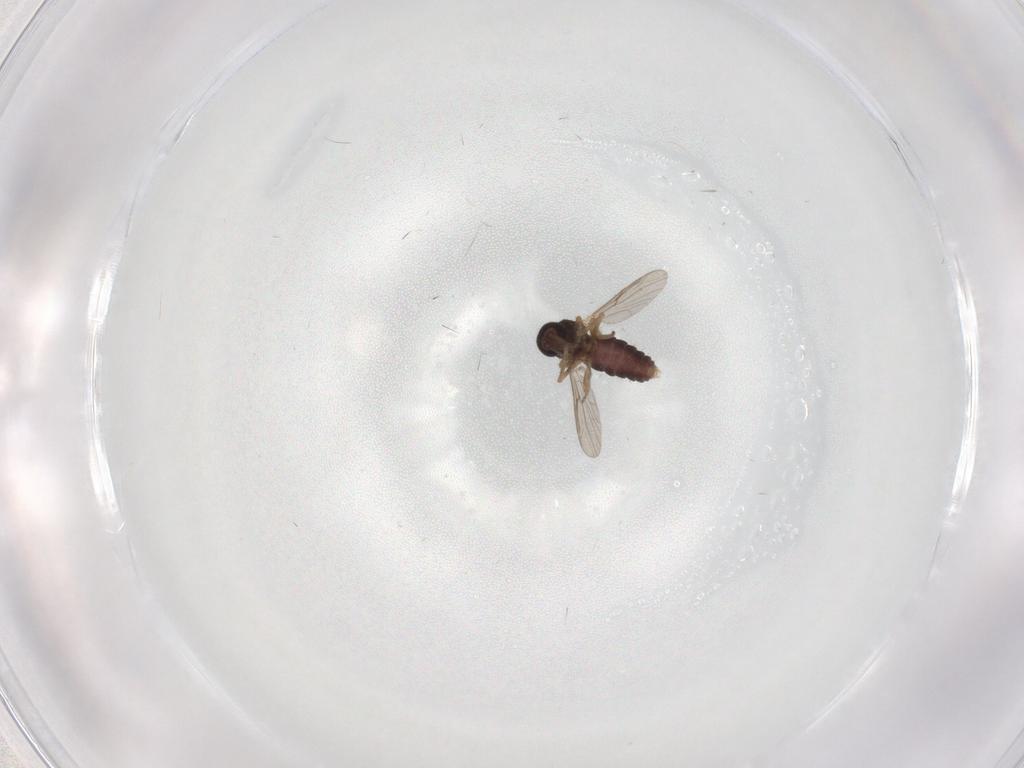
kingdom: Animalia
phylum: Arthropoda
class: Insecta
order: Diptera
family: Ceratopogonidae
